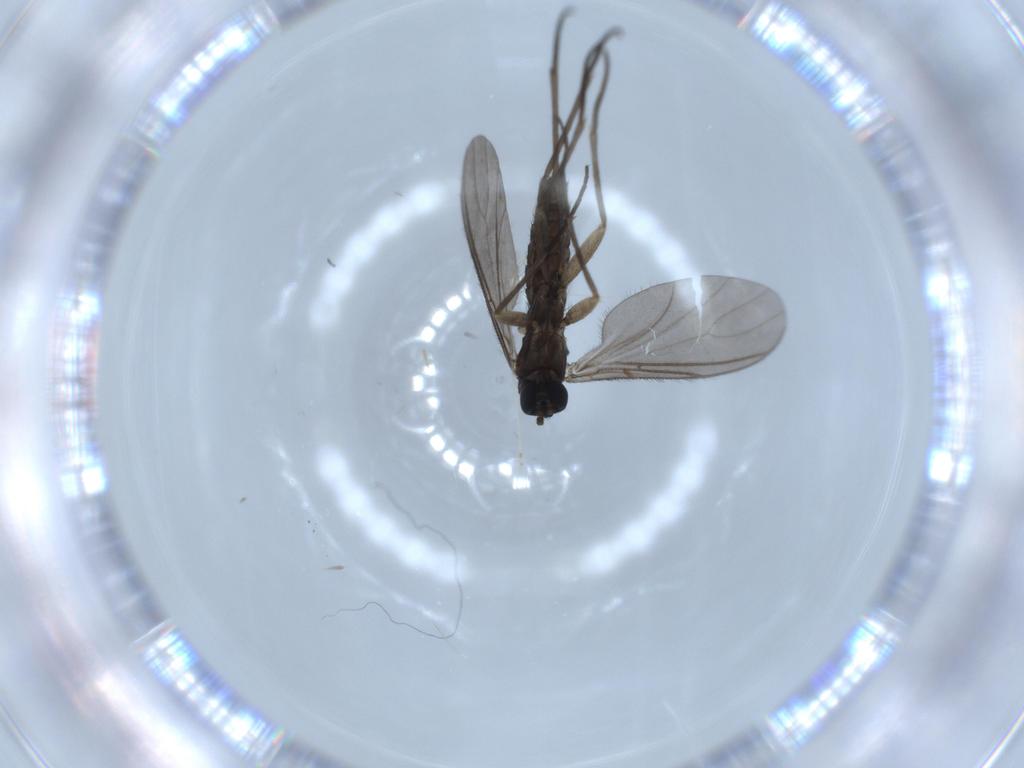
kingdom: Animalia
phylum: Arthropoda
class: Insecta
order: Diptera
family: Sciaridae
